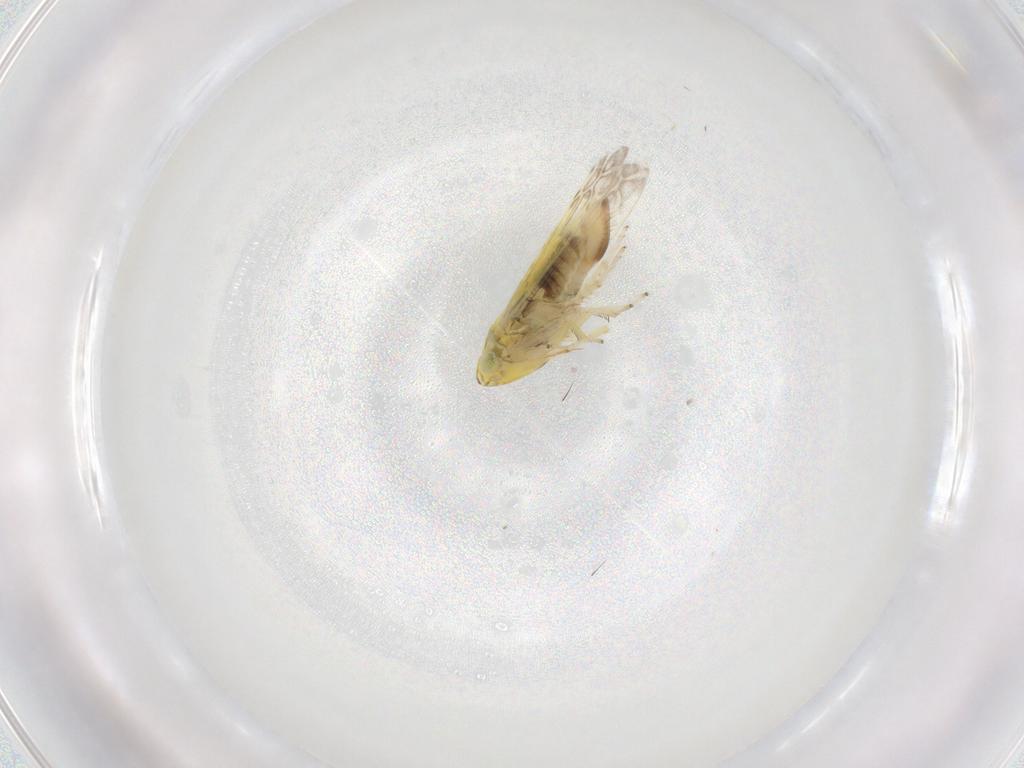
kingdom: Animalia
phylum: Arthropoda
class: Insecta
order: Hemiptera
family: Cicadellidae
